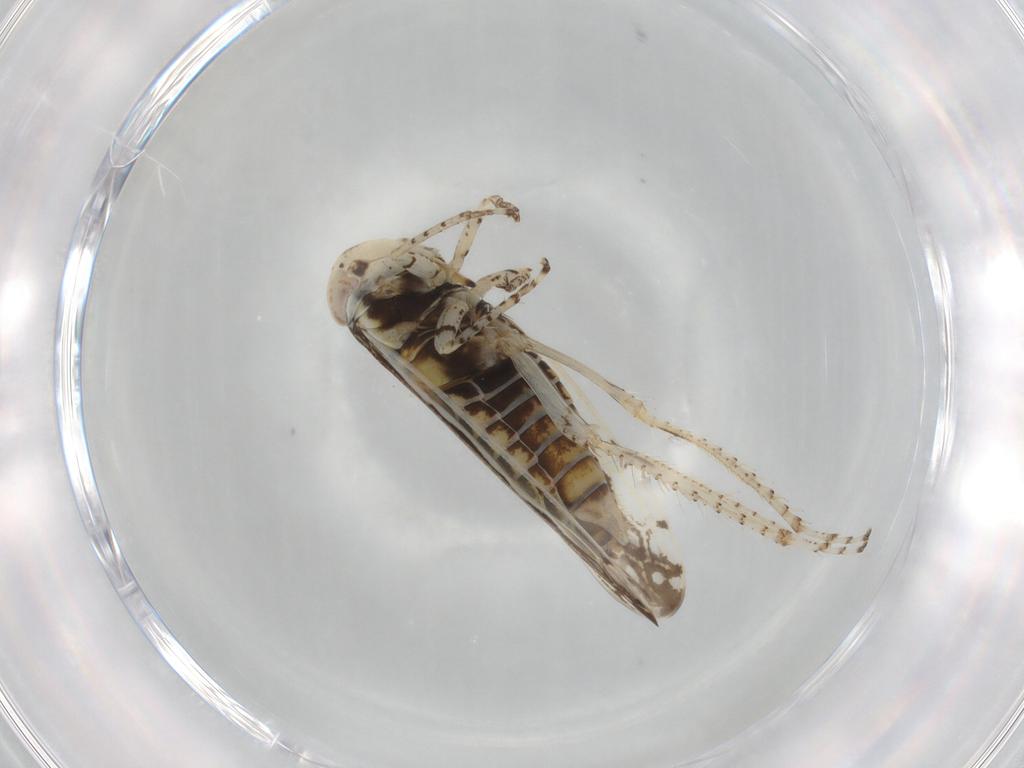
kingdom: Animalia
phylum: Arthropoda
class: Insecta
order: Hemiptera
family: Cicadellidae
